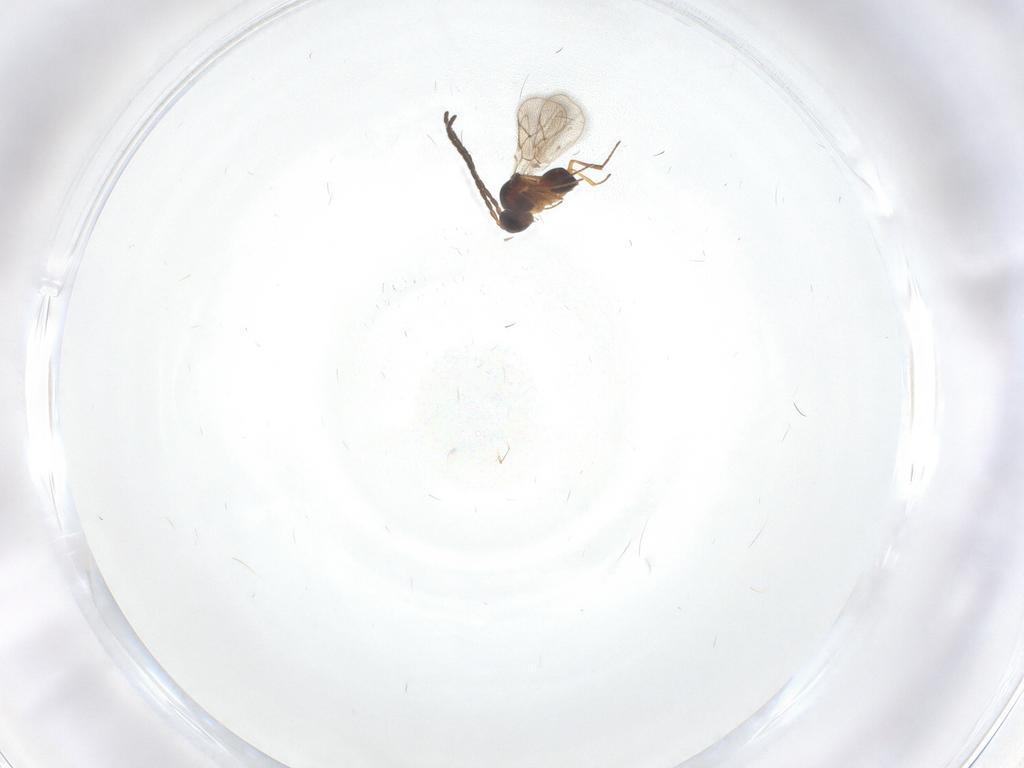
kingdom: Animalia
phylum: Arthropoda
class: Insecta
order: Hymenoptera
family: Figitidae
